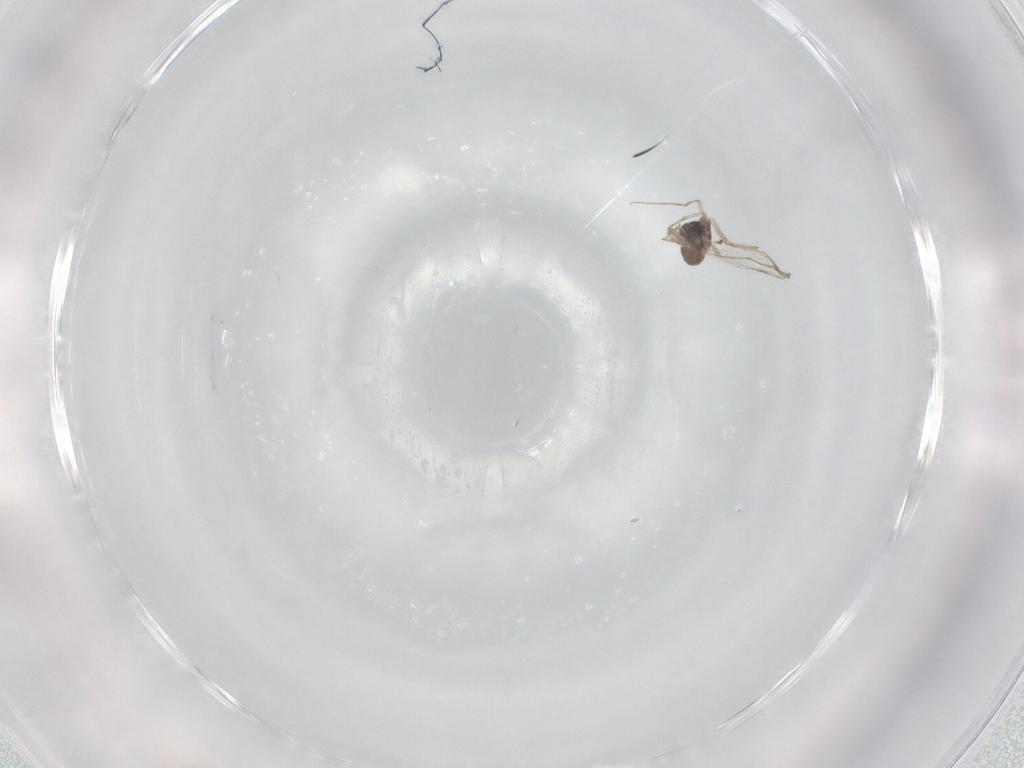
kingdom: Animalia
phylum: Arthropoda
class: Insecta
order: Diptera
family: Chironomidae
